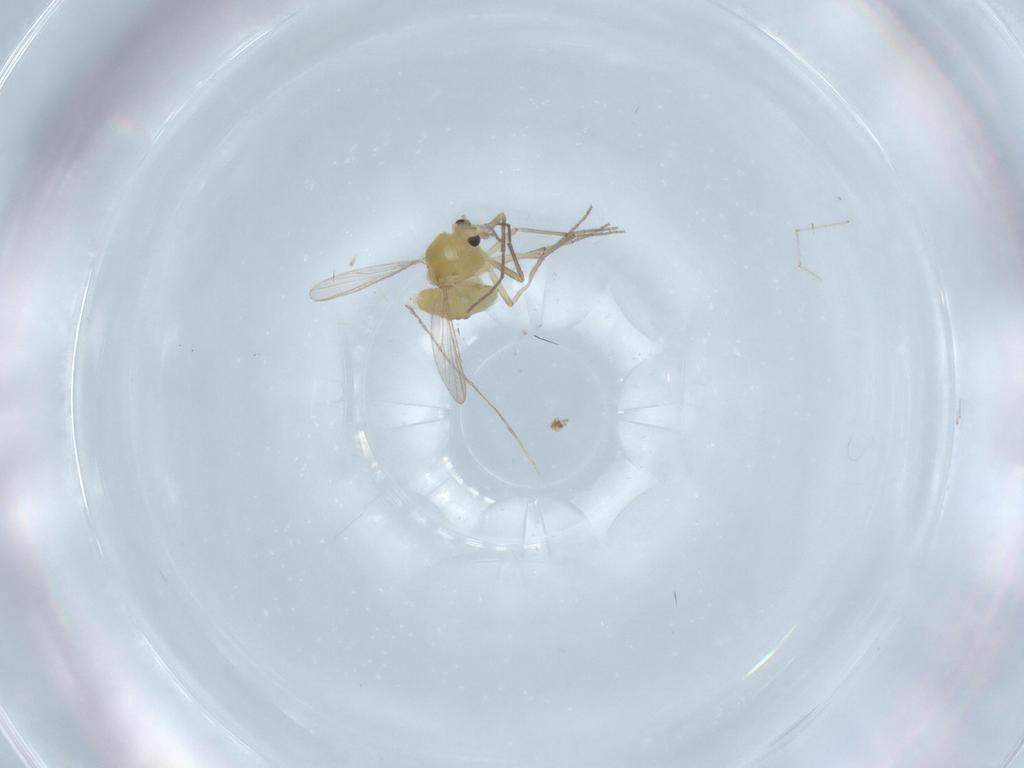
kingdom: Animalia
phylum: Arthropoda
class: Insecta
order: Diptera
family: Chironomidae
